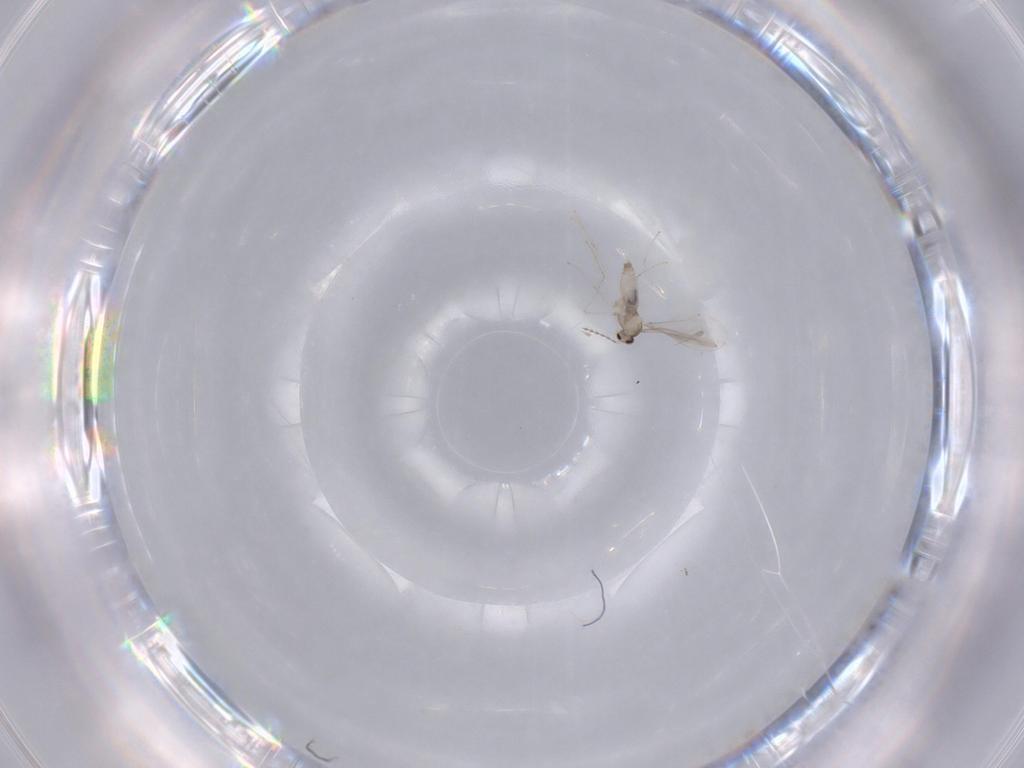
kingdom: Animalia
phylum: Arthropoda
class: Insecta
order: Diptera
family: Cecidomyiidae
